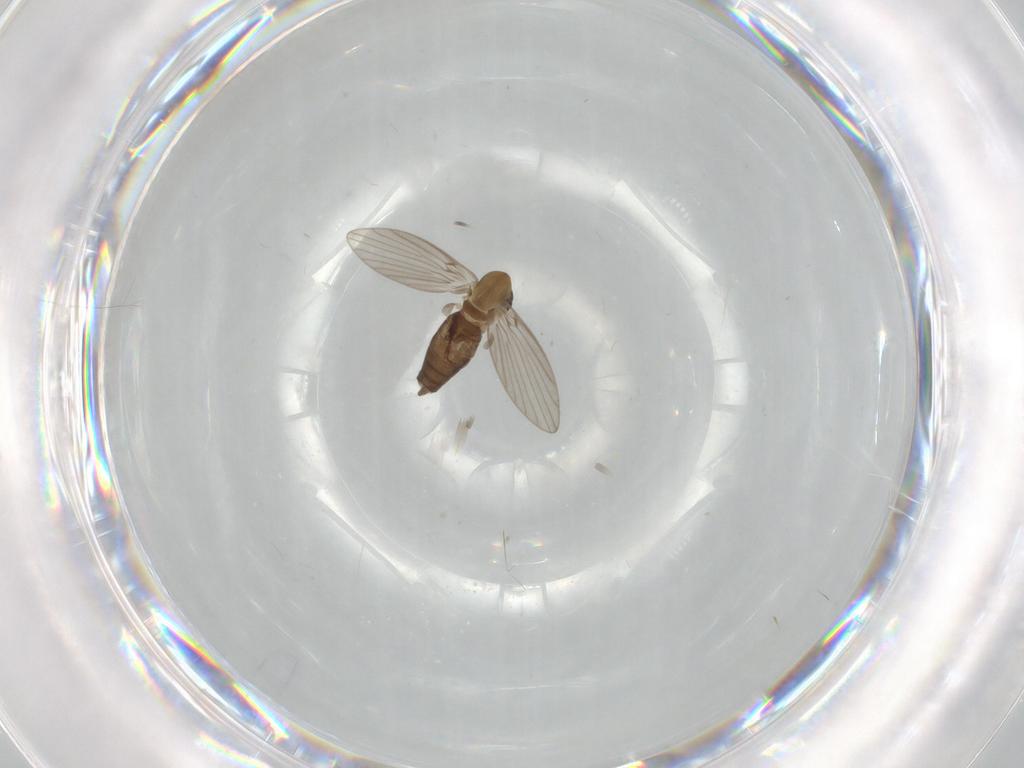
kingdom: Animalia
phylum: Arthropoda
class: Insecta
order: Diptera
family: Psychodidae
